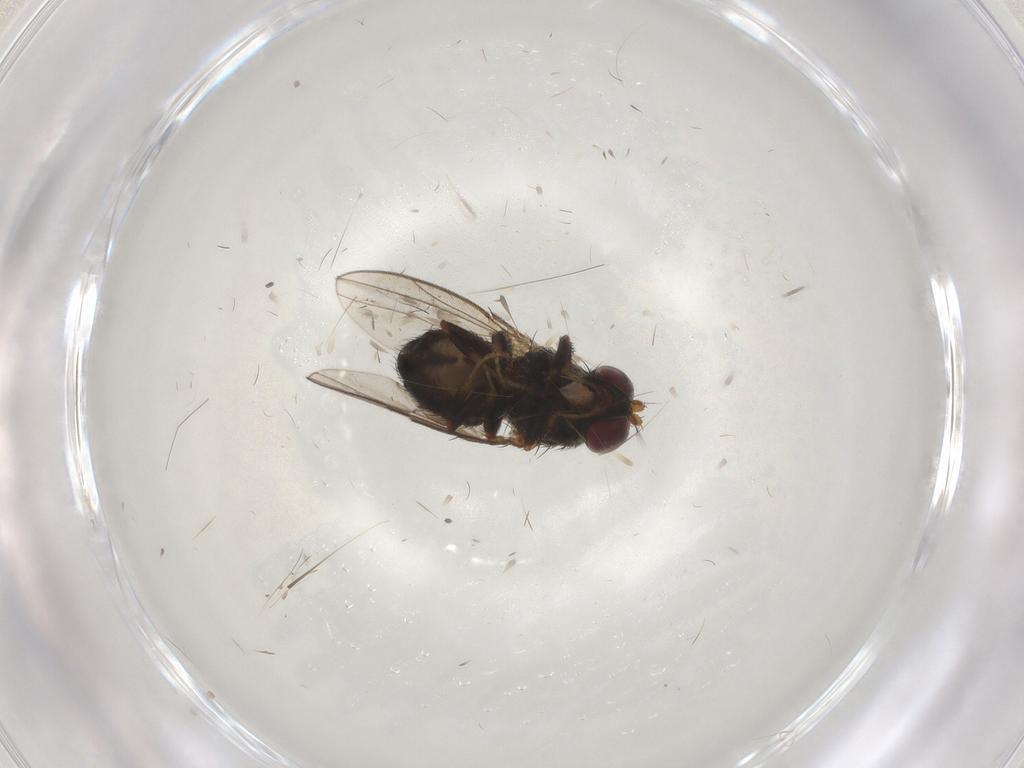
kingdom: Animalia
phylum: Arthropoda
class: Insecta
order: Diptera
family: Ephydridae
